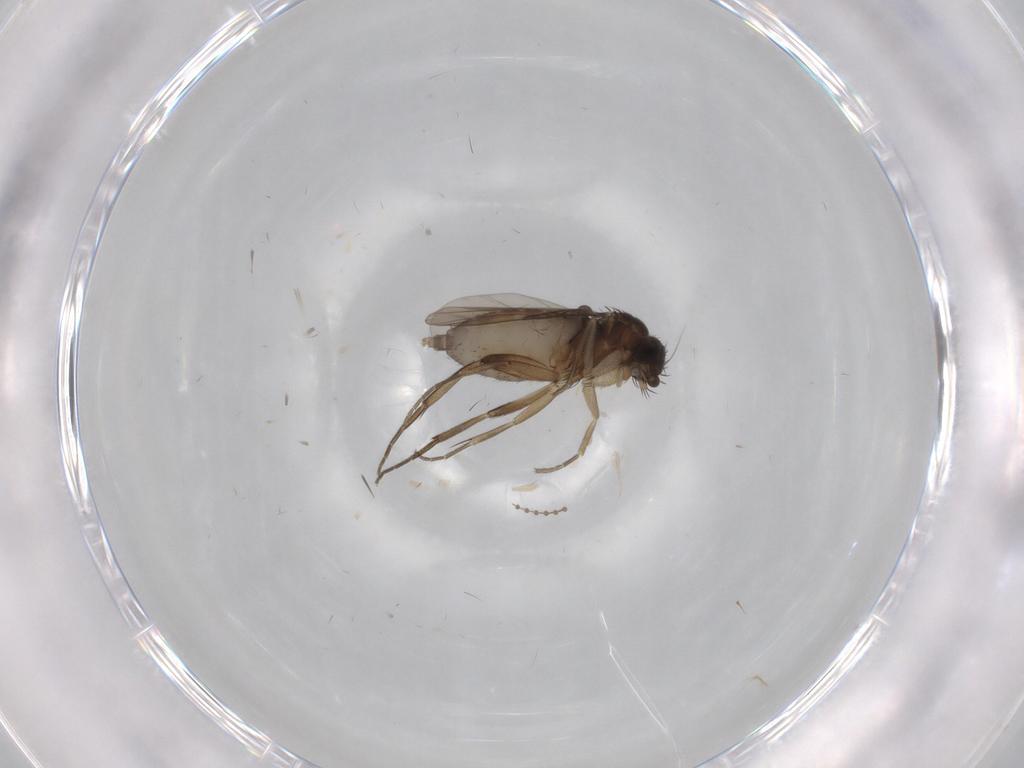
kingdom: Animalia
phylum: Arthropoda
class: Insecta
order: Diptera
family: Phoridae
